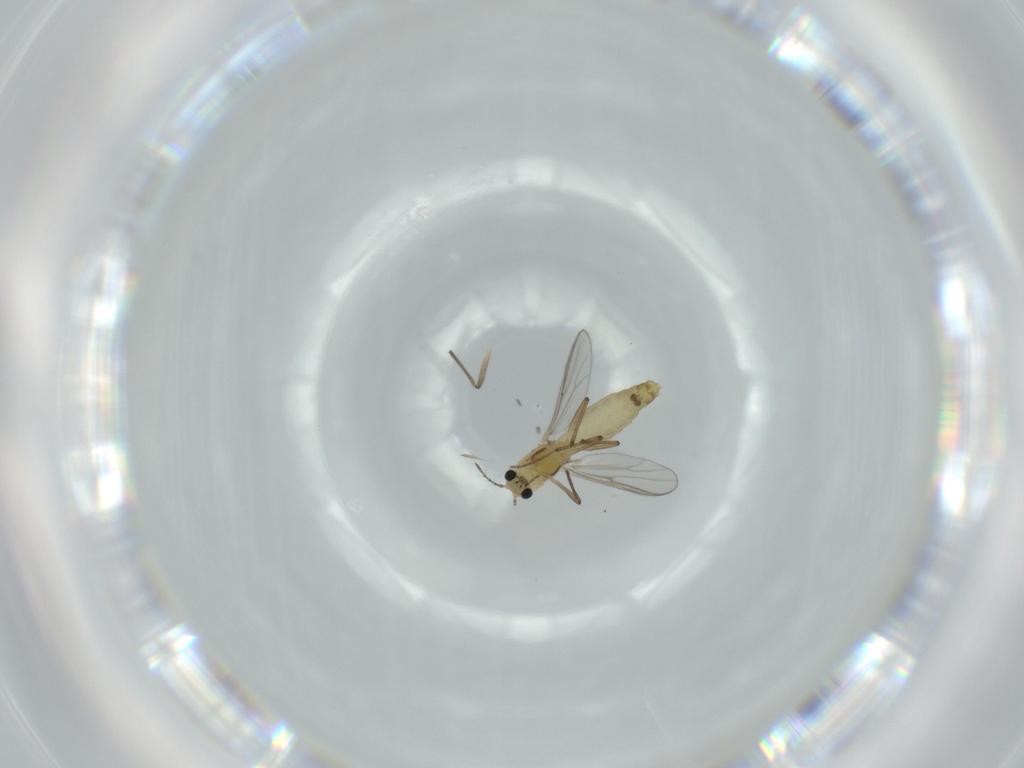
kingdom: Animalia
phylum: Arthropoda
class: Insecta
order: Diptera
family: Chironomidae
